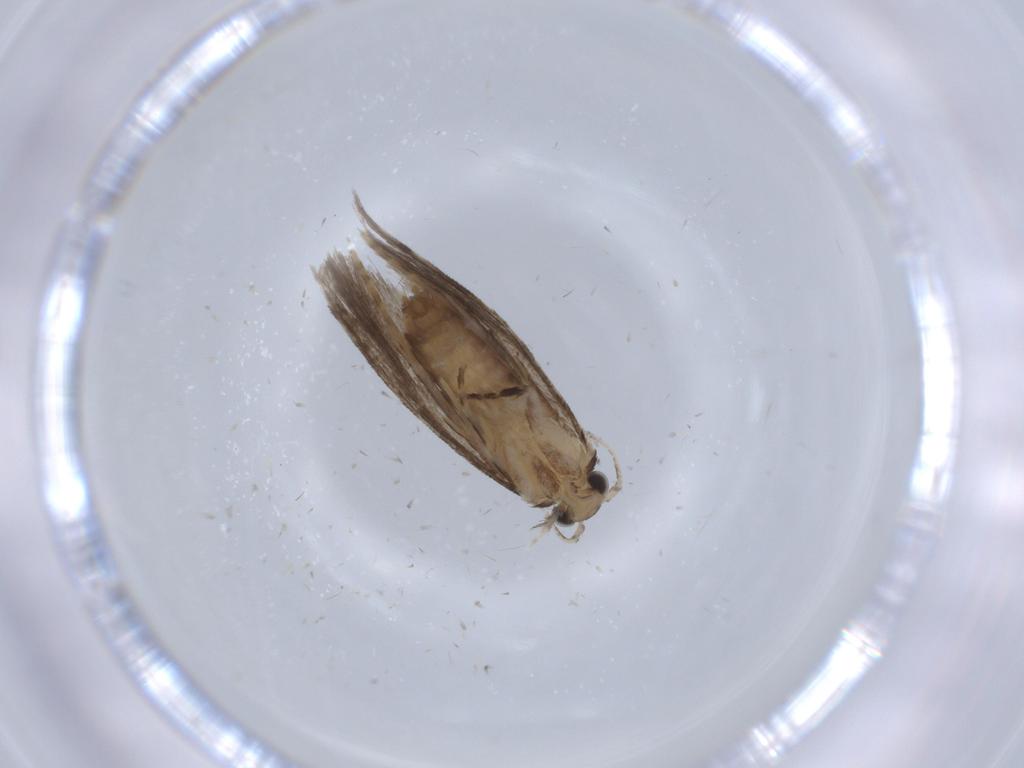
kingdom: Animalia
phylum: Arthropoda
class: Insecta
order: Lepidoptera
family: Tineidae
